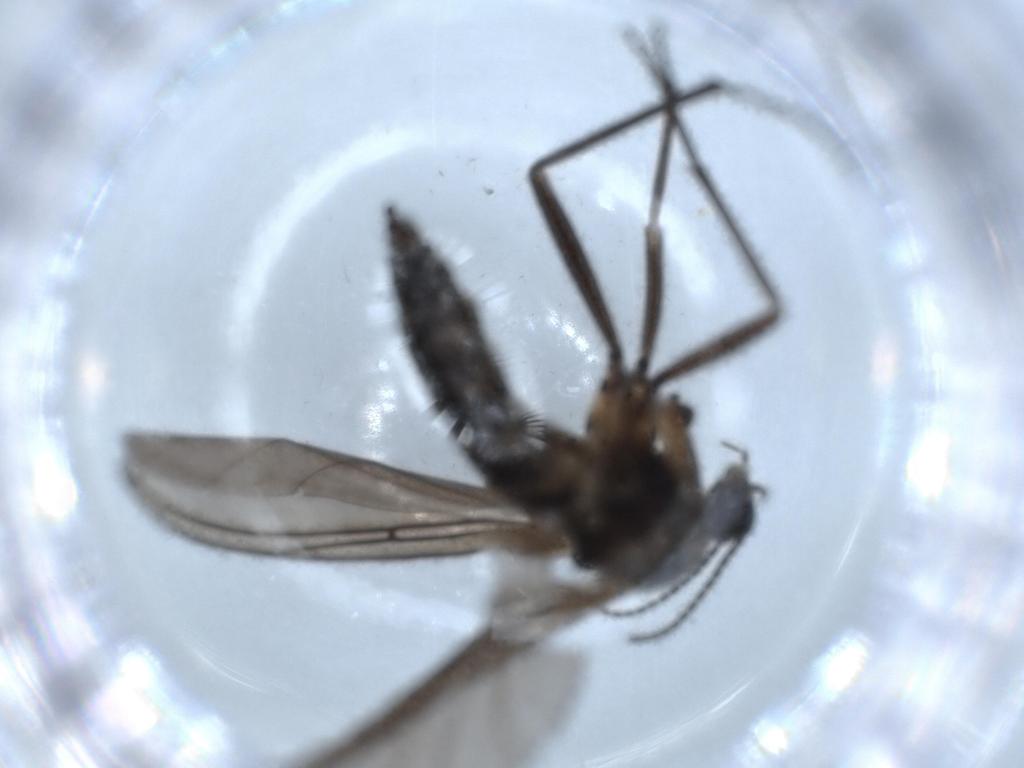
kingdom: Animalia
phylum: Arthropoda
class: Insecta
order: Diptera
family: Sciaridae
